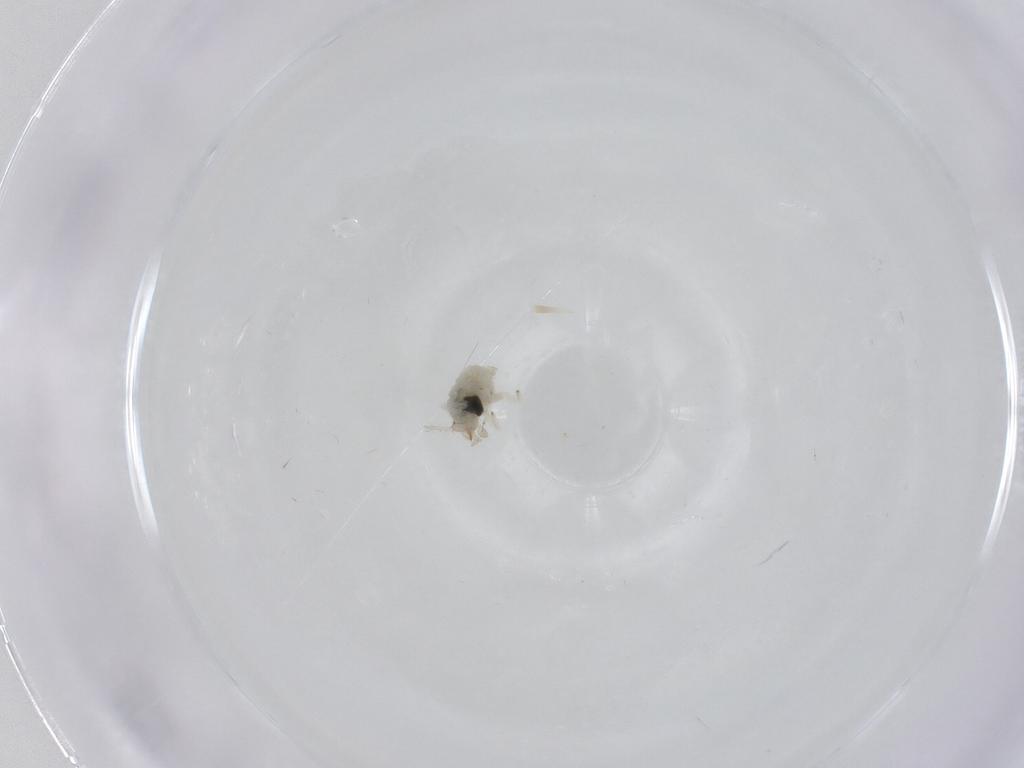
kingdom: Animalia
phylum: Arthropoda
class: Insecta
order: Neuroptera
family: Coniopterygidae
